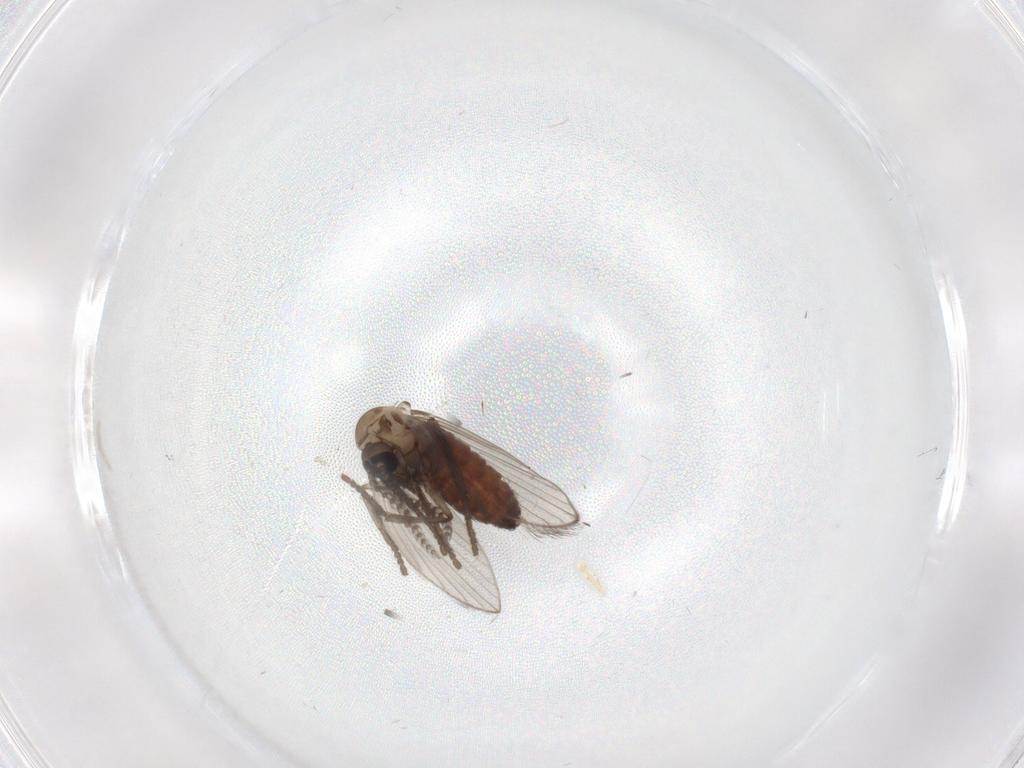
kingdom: Animalia
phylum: Arthropoda
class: Insecta
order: Diptera
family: Psychodidae
